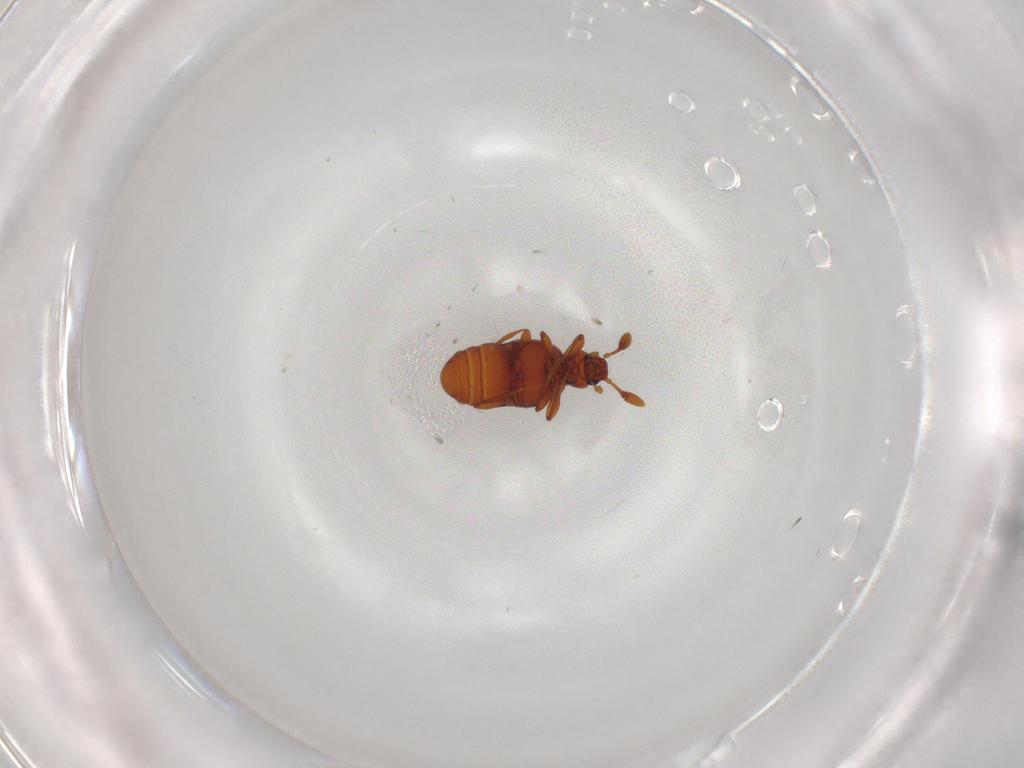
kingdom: Animalia
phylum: Arthropoda
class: Insecta
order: Coleoptera
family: Staphylinidae
